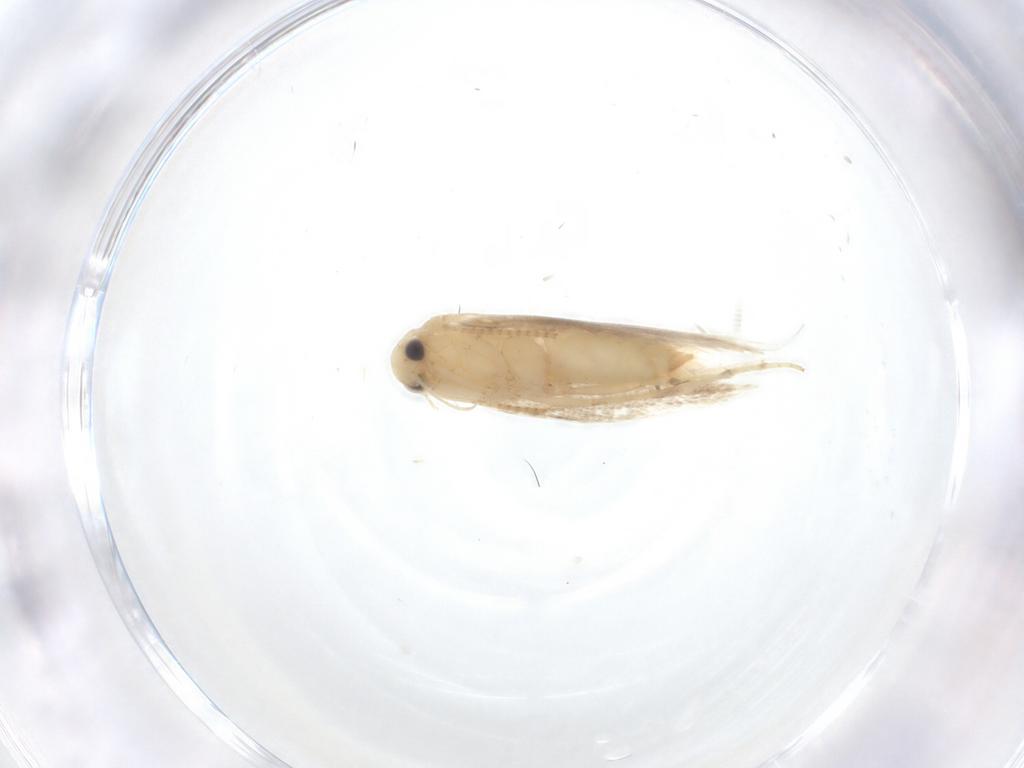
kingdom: Animalia
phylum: Arthropoda
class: Insecta
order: Lepidoptera
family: Gracillariidae
